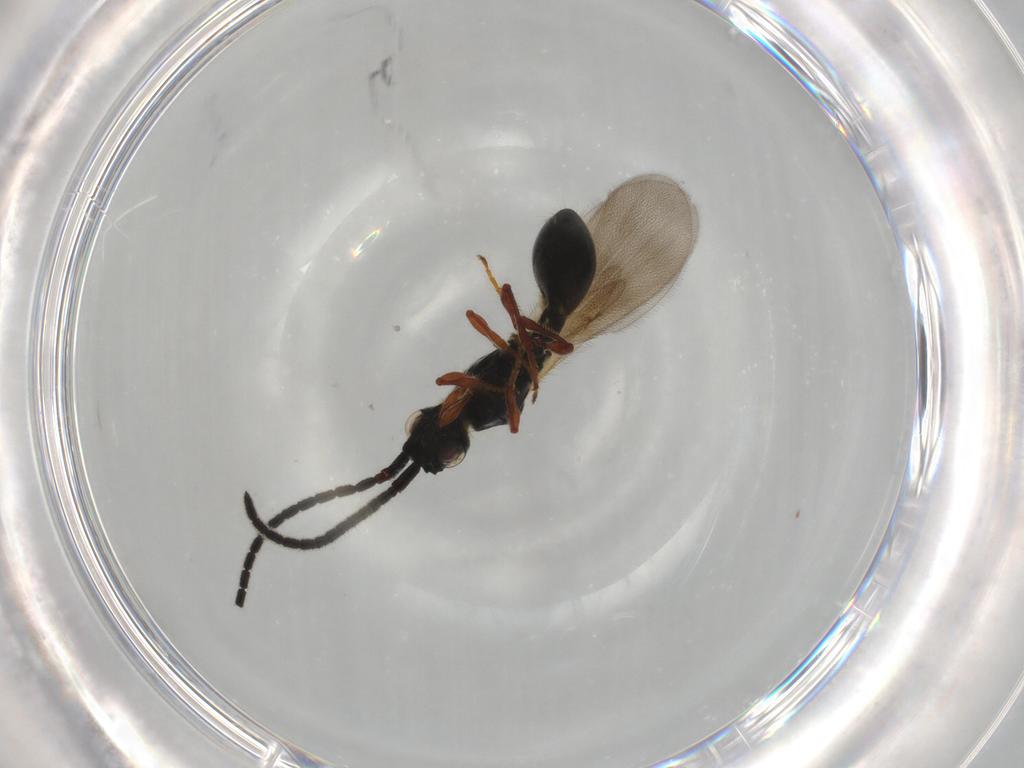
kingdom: Animalia
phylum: Arthropoda
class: Insecta
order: Hymenoptera
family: Diapriidae
